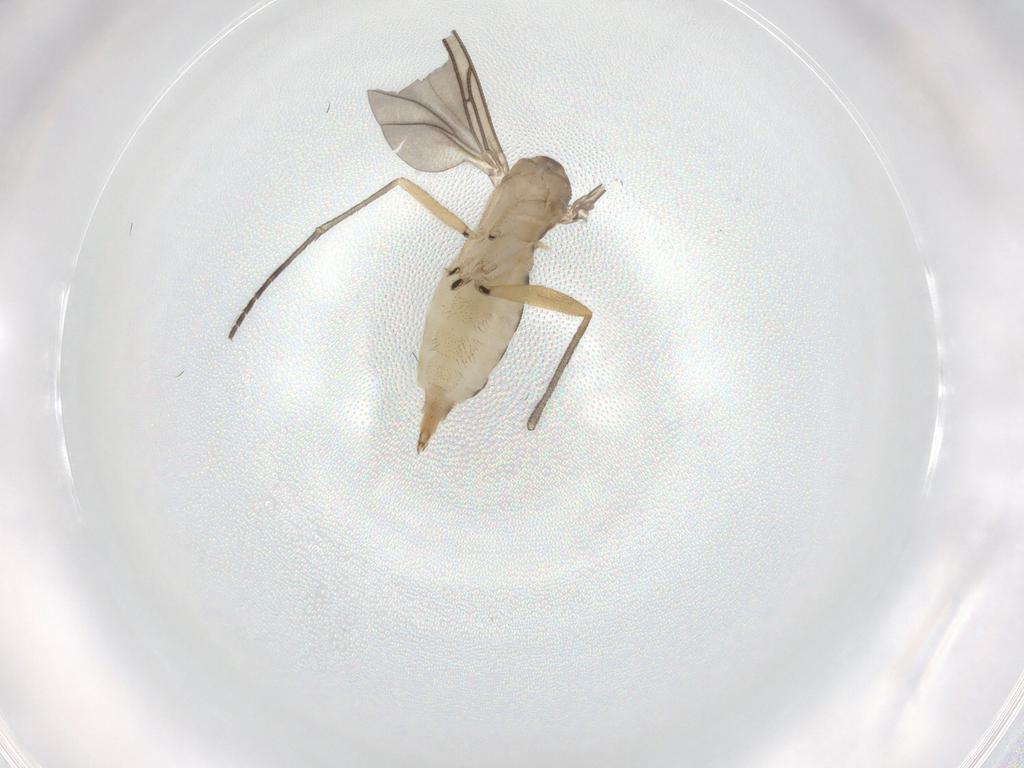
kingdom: Animalia
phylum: Arthropoda
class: Insecta
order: Diptera
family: Sciaridae
